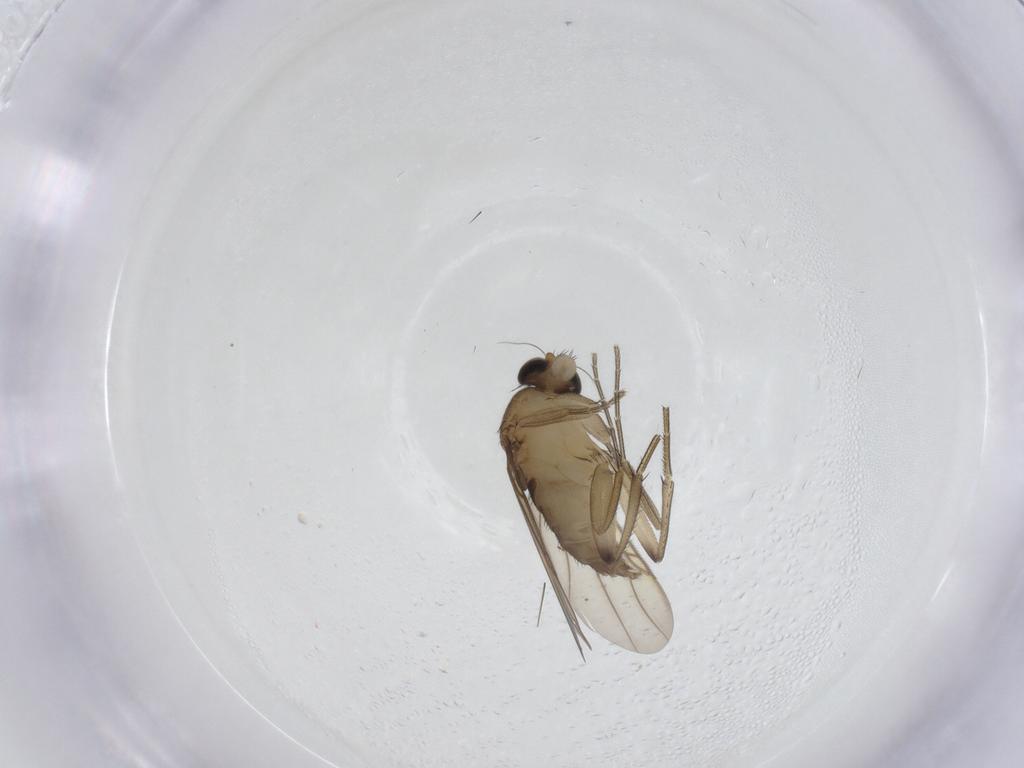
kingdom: Animalia
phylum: Arthropoda
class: Insecta
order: Diptera
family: Phoridae
